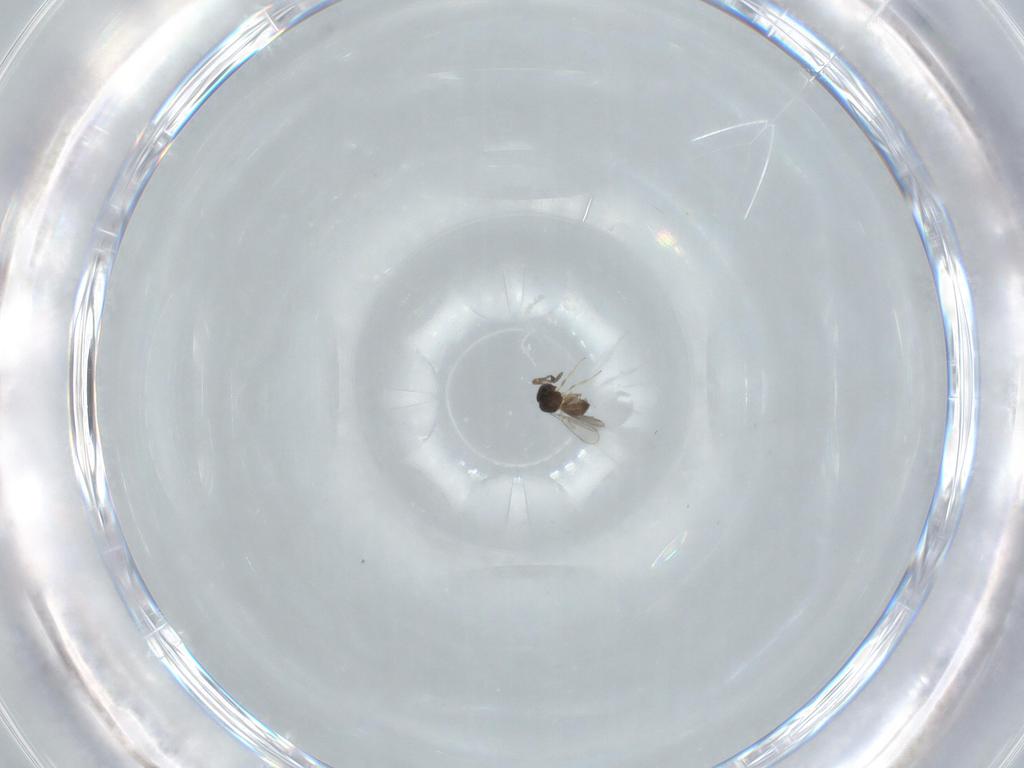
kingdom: Animalia
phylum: Arthropoda
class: Insecta
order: Hymenoptera
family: Scelionidae
